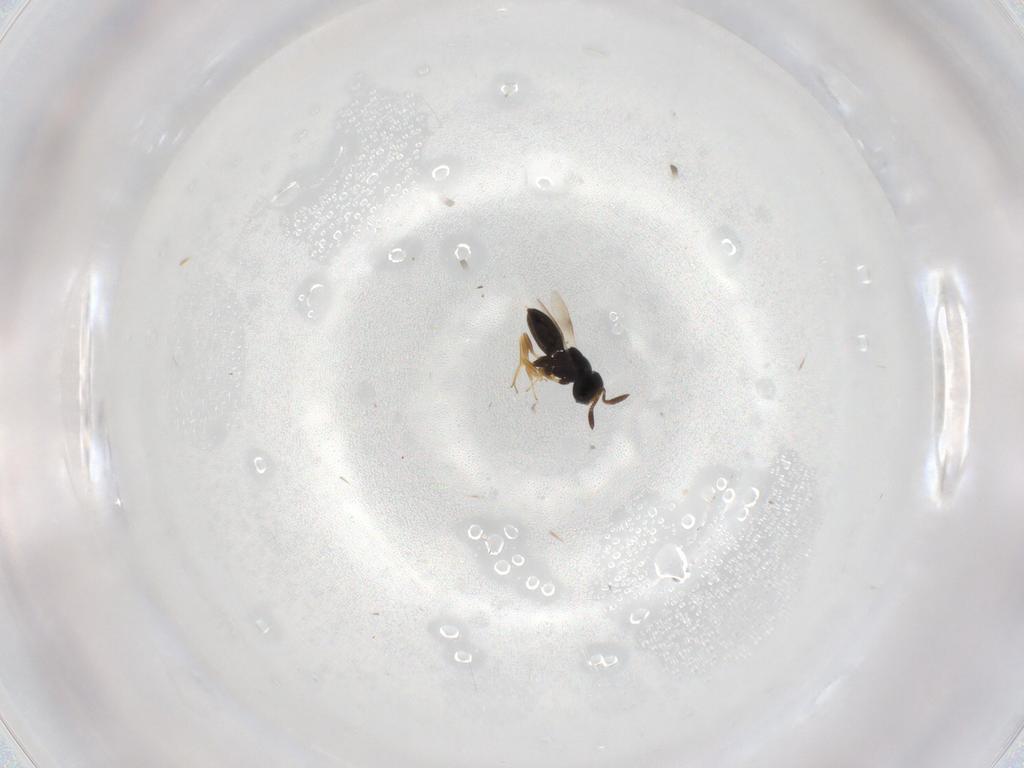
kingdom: Animalia
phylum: Arthropoda
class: Insecta
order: Hymenoptera
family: Scelionidae
